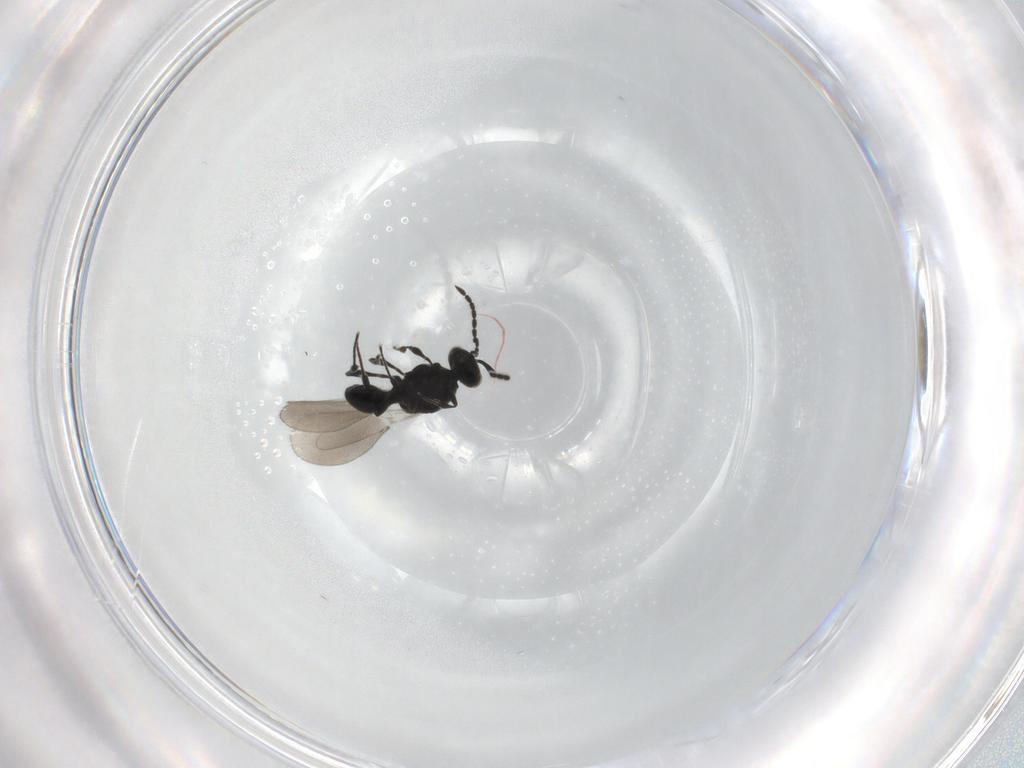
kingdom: Animalia
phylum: Arthropoda
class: Insecta
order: Hymenoptera
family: Platygastridae
